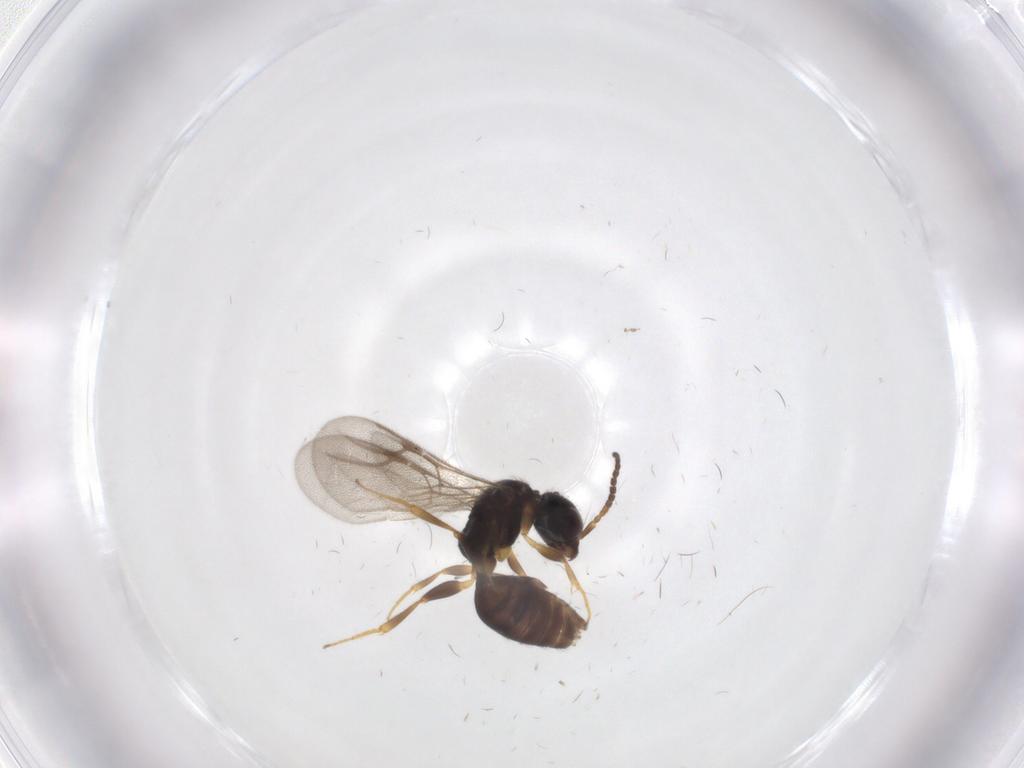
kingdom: Animalia
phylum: Arthropoda
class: Insecta
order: Hymenoptera
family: Bethylidae
